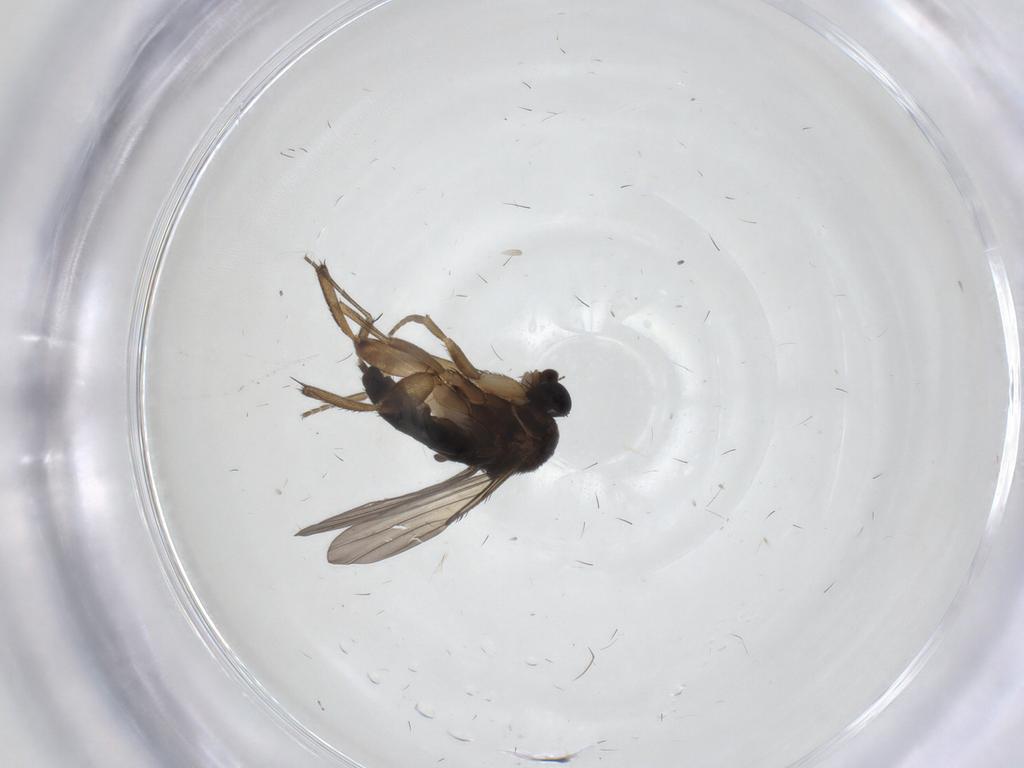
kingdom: Animalia
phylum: Arthropoda
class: Insecta
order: Diptera
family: Phoridae
